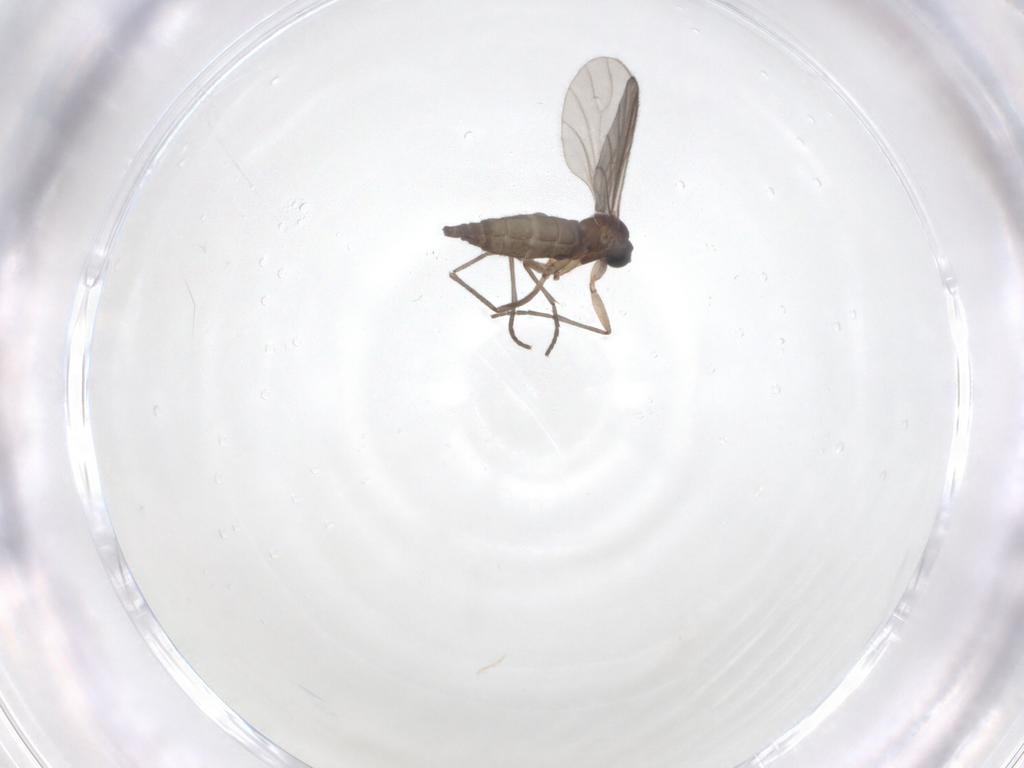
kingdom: Animalia
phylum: Arthropoda
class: Insecta
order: Diptera
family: Sciaridae
